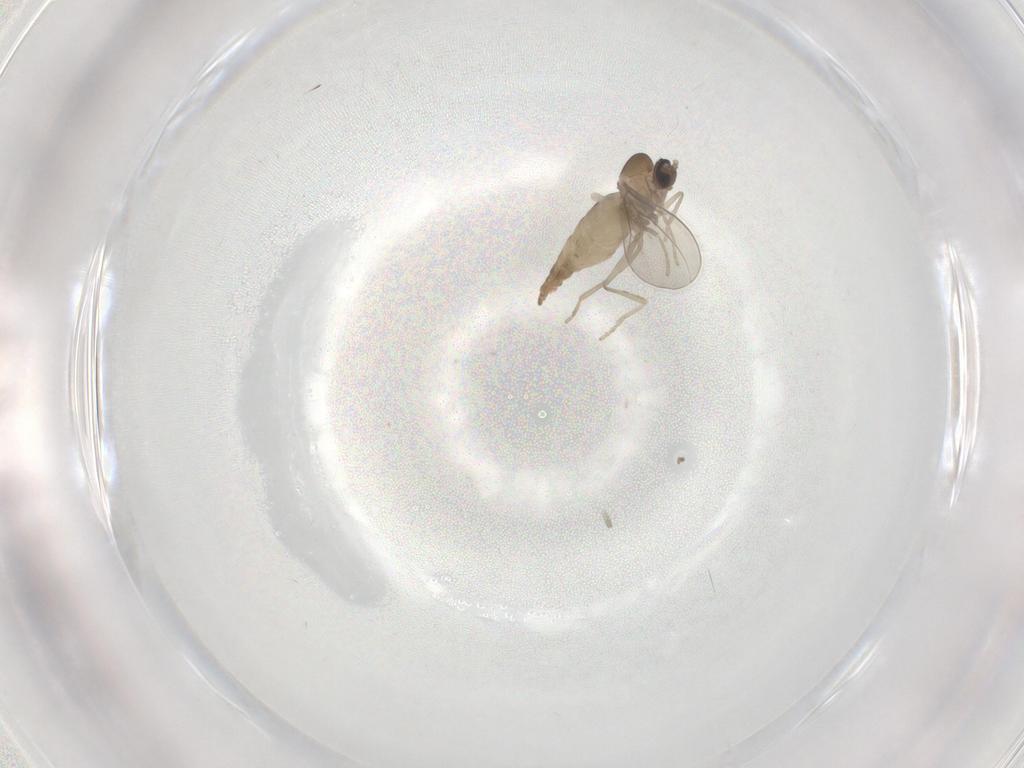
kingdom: Animalia
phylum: Arthropoda
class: Insecta
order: Diptera
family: Cecidomyiidae
